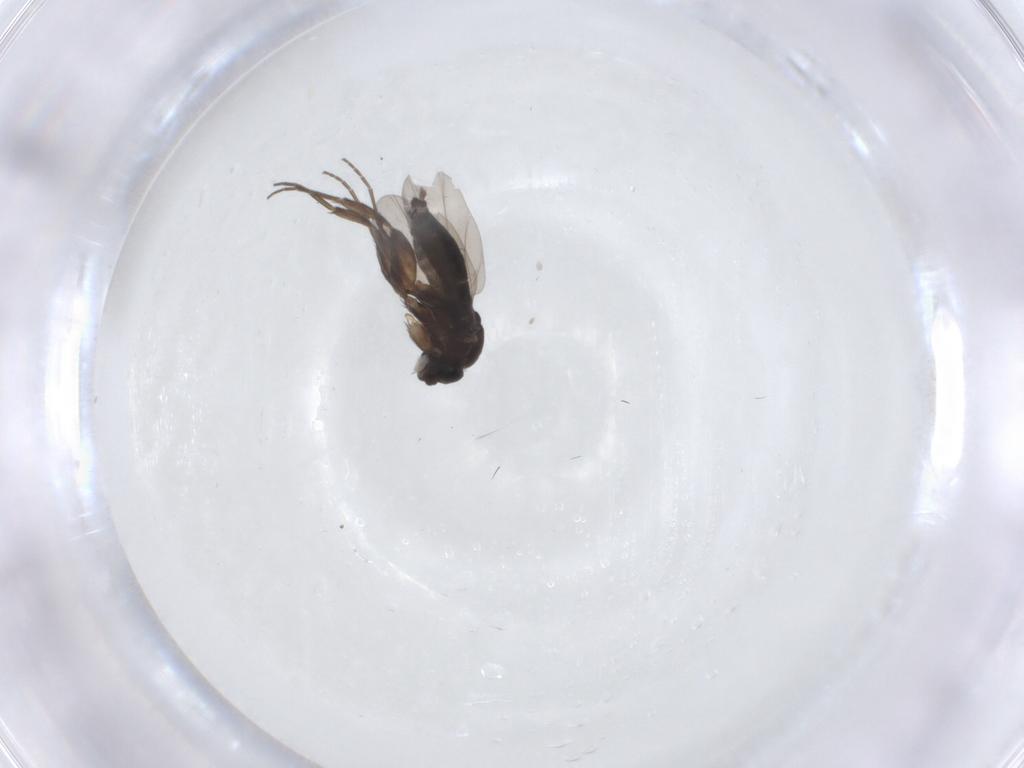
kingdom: Animalia
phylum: Arthropoda
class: Insecta
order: Diptera
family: Phoridae
